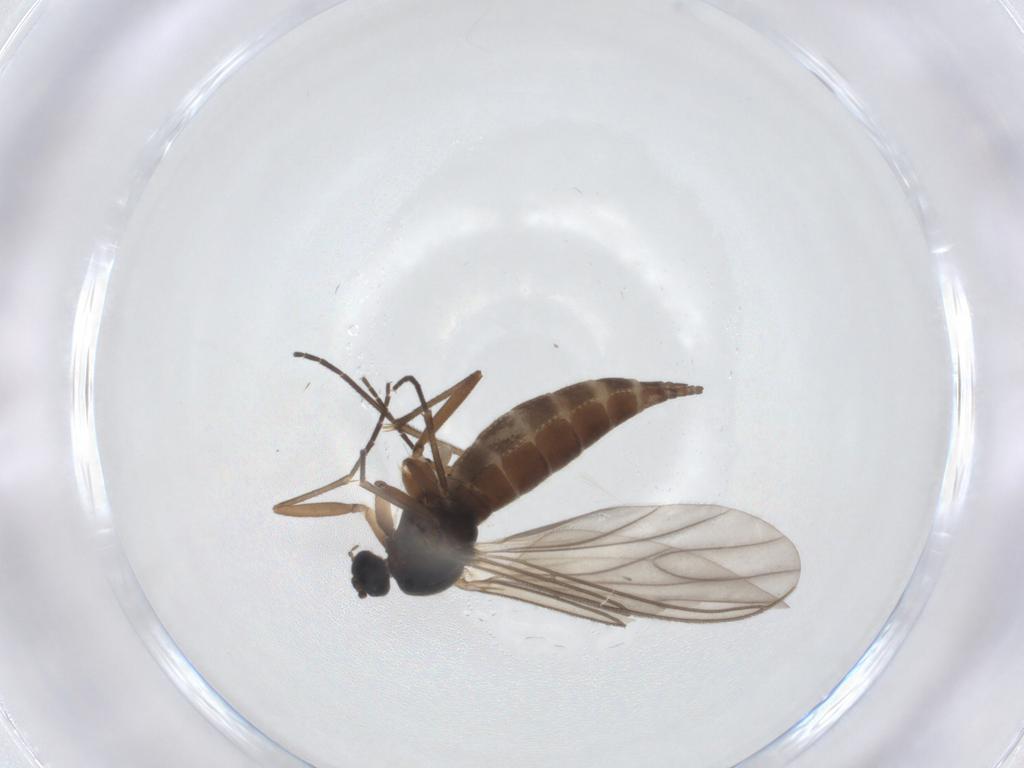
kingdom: Animalia
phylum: Arthropoda
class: Insecta
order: Diptera
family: Sciaridae
